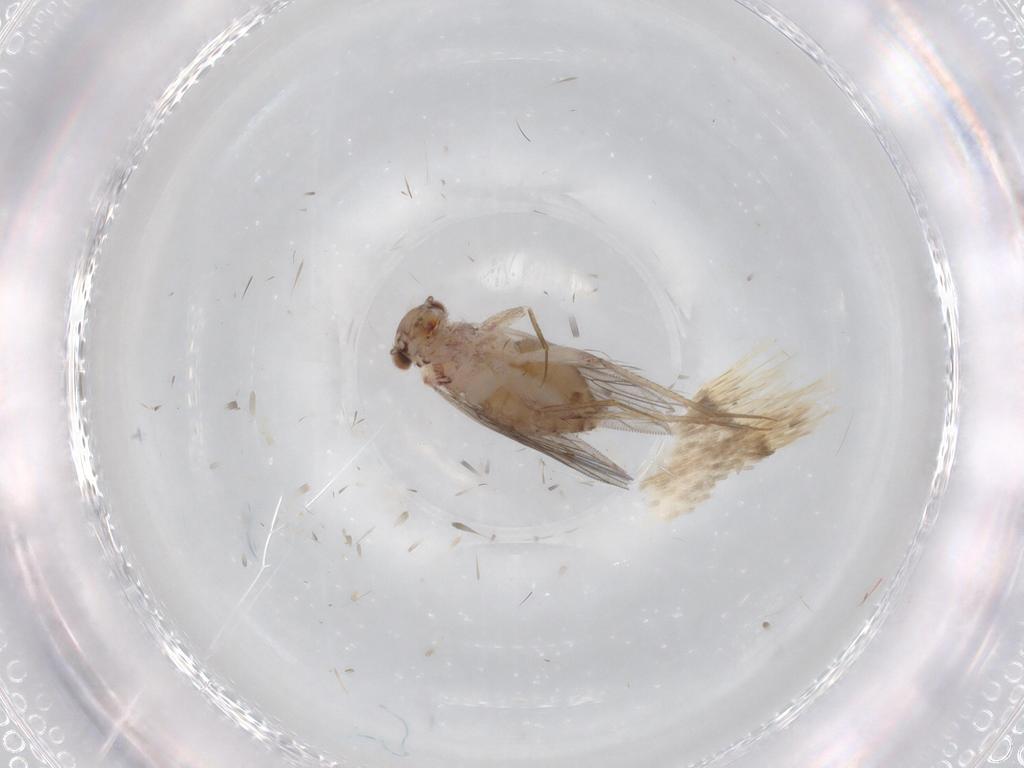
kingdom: Animalia
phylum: Arthropoda
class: Insecta
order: Psocodea
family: Lepidopsocidae
